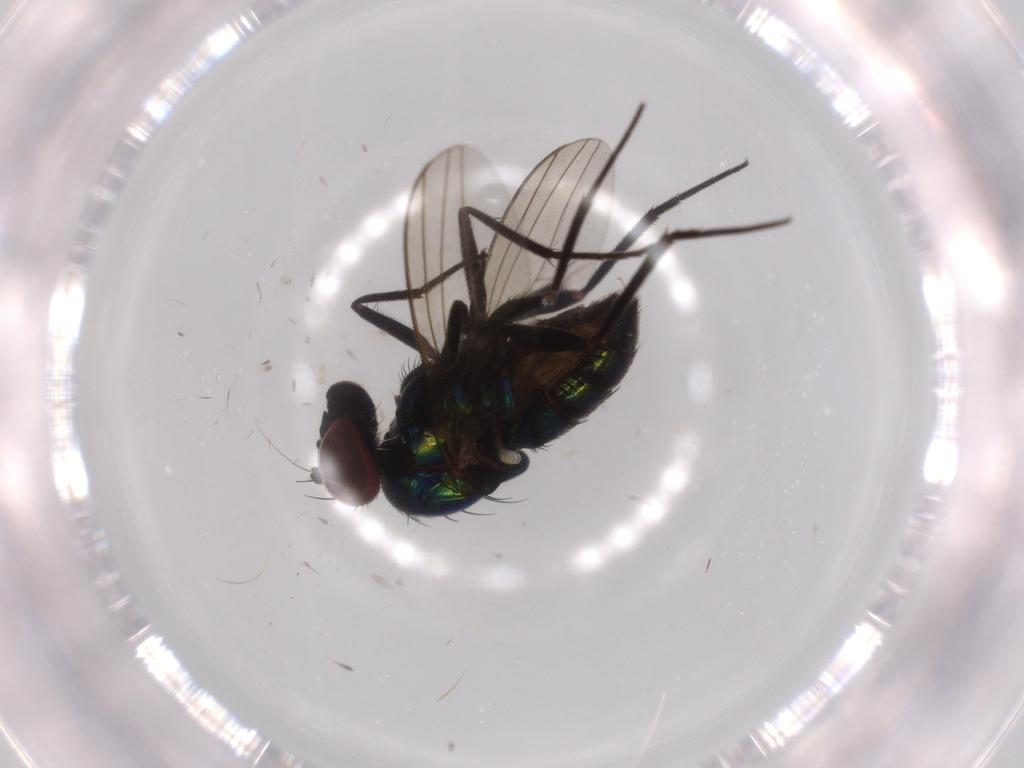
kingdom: Animalia
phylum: Arthropoda
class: Insecta
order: Diptera
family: Dolichopodidae
